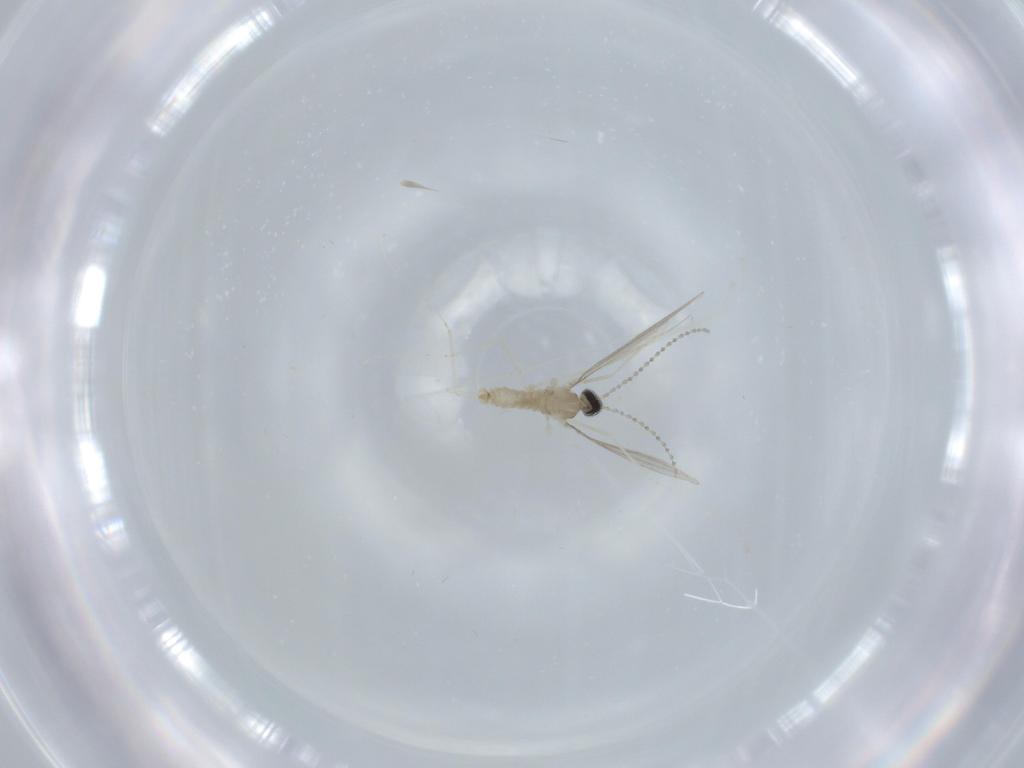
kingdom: Animalia
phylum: Arthropoda
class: Insecta
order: Diptera
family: Cecidomyiidae
